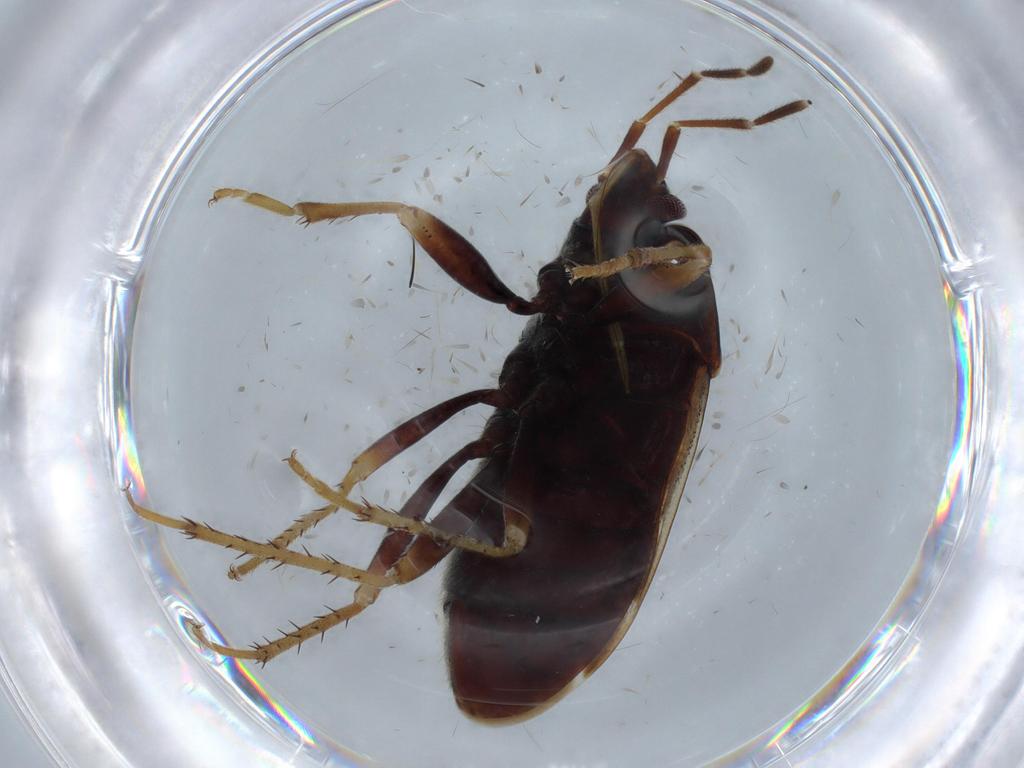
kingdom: Animalia
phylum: Arthropoda
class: Insecta
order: Hemiptera
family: Rhyparochromidae
